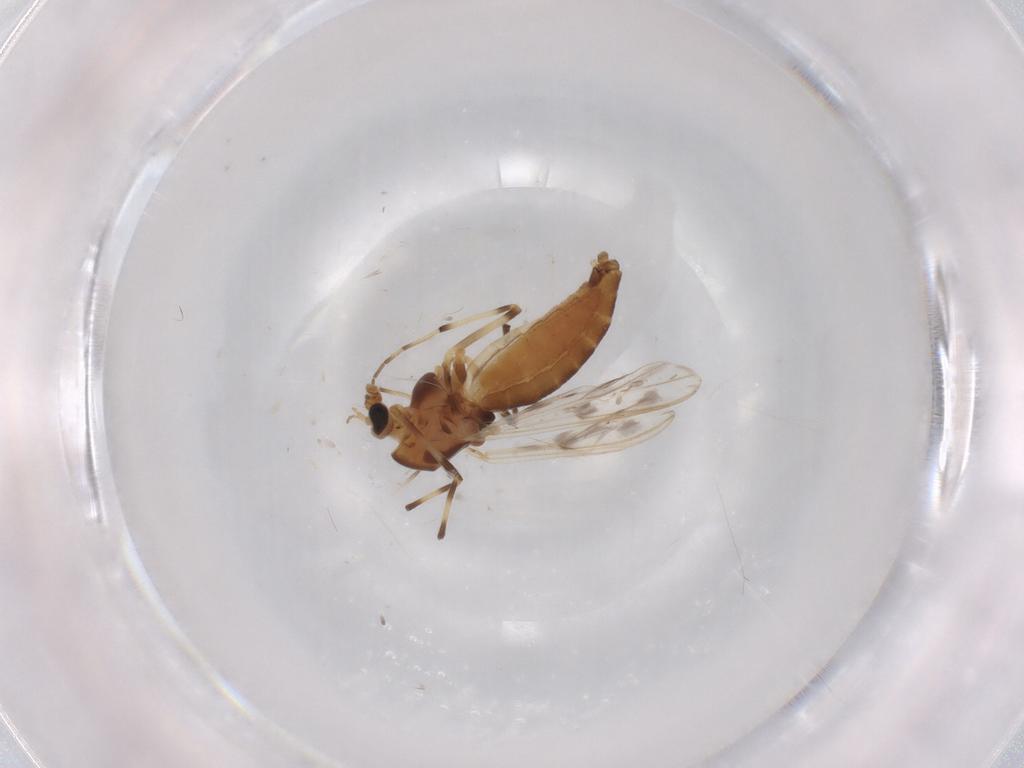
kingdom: Animalia
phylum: Arthropoda
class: Insecta
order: Diptera
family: Chironomidae
